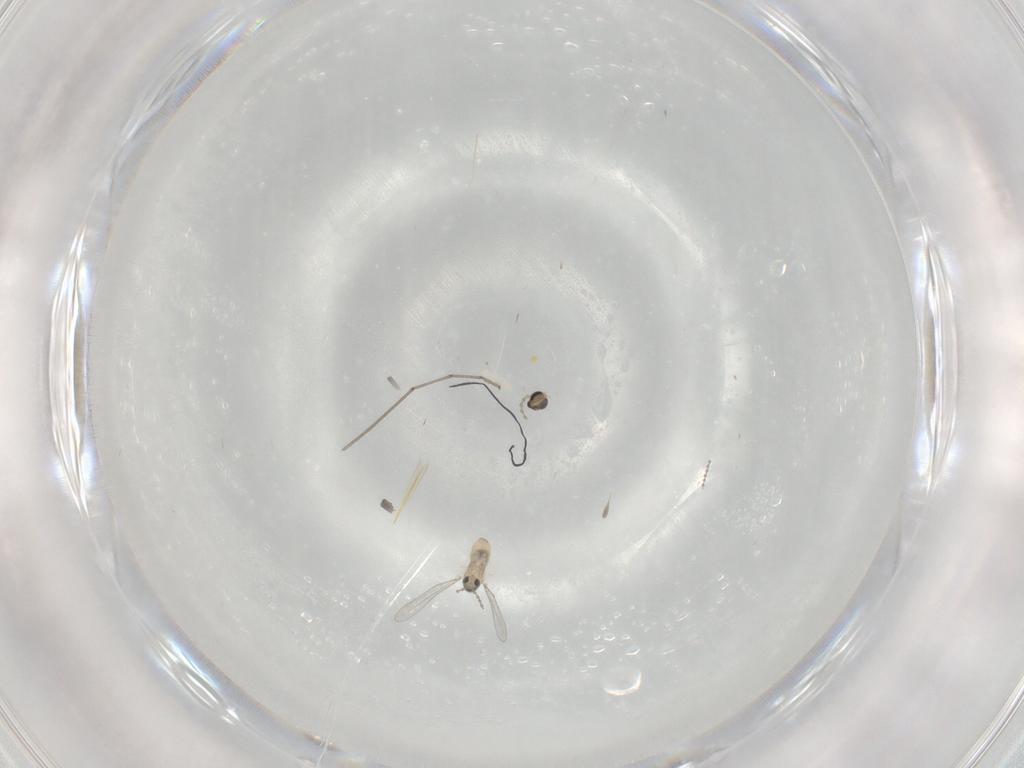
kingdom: Animalia
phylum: Arthropoda
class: Insecta
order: Diptera
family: Cecidomyiidae
